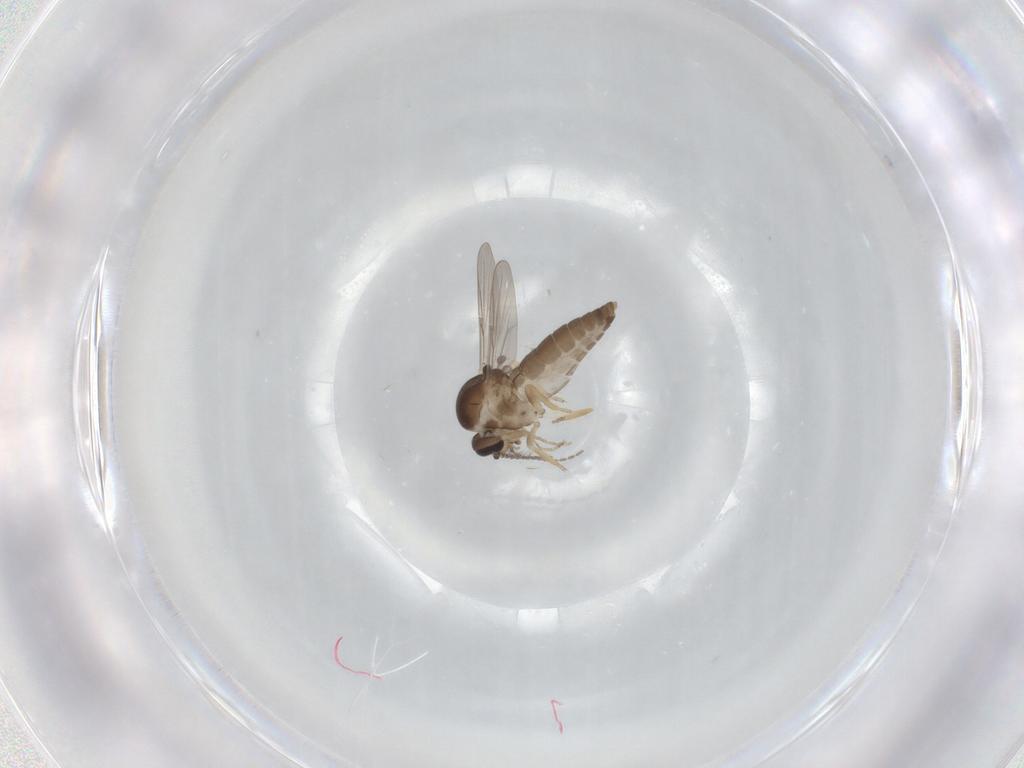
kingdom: Animalia
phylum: Arthropoda
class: Insecta
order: Diptera
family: Ceratopogonidae
